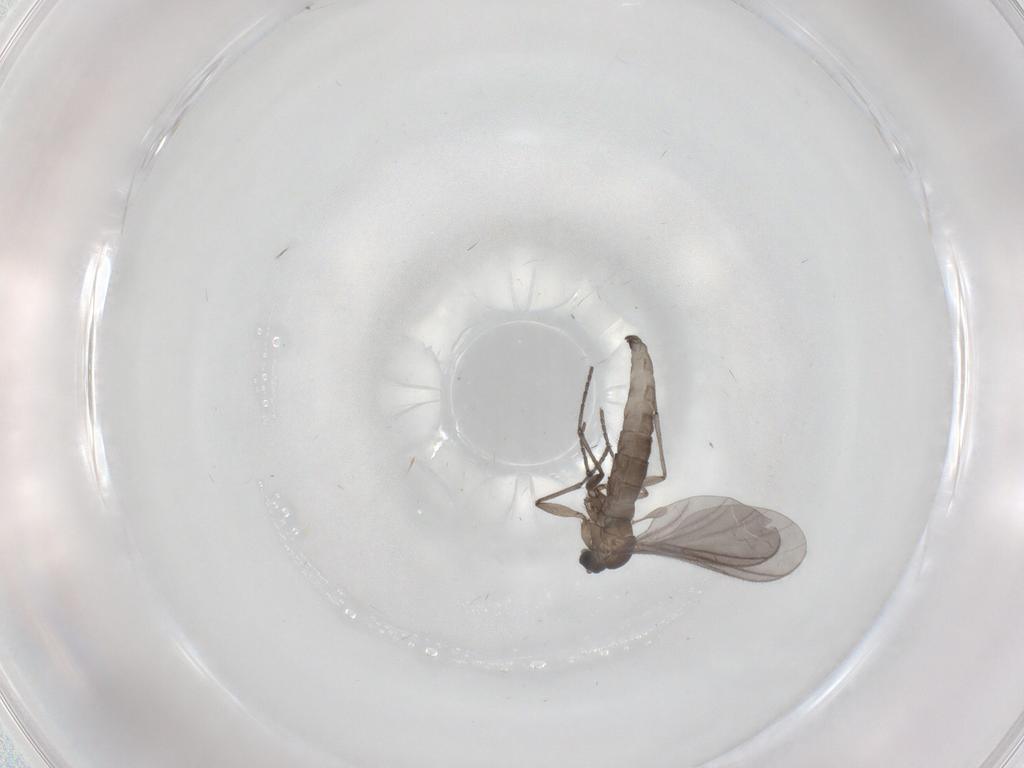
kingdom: Animalia
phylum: Arthropoda
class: Insecta
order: Diptera
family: Sciaridae
